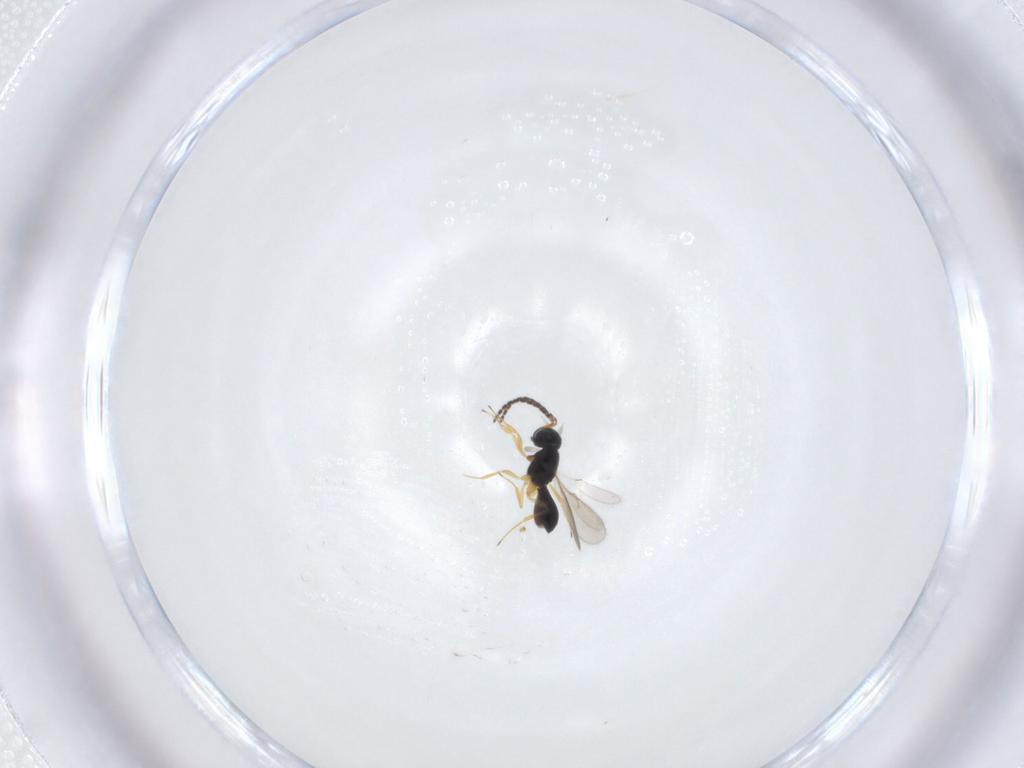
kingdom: Animalia
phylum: Arthropoda
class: Insecta
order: Hymenoptera
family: Scelionidae
